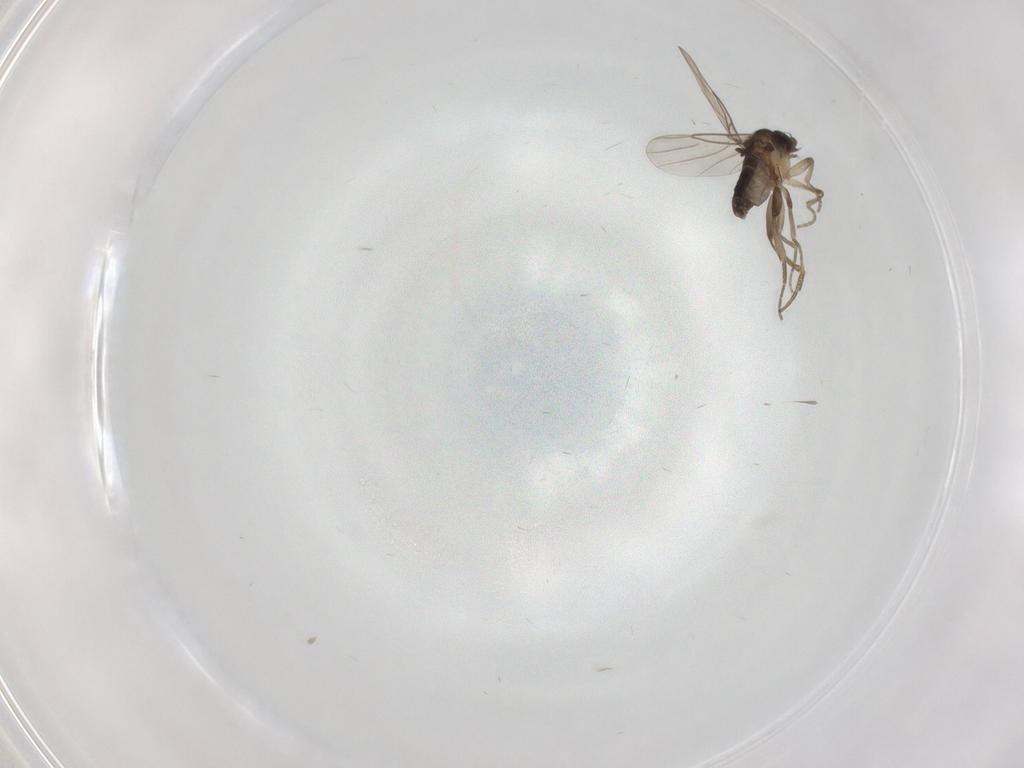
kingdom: Animalia
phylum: Arthropoda
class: Insecta
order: Diptera
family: Phoridae
